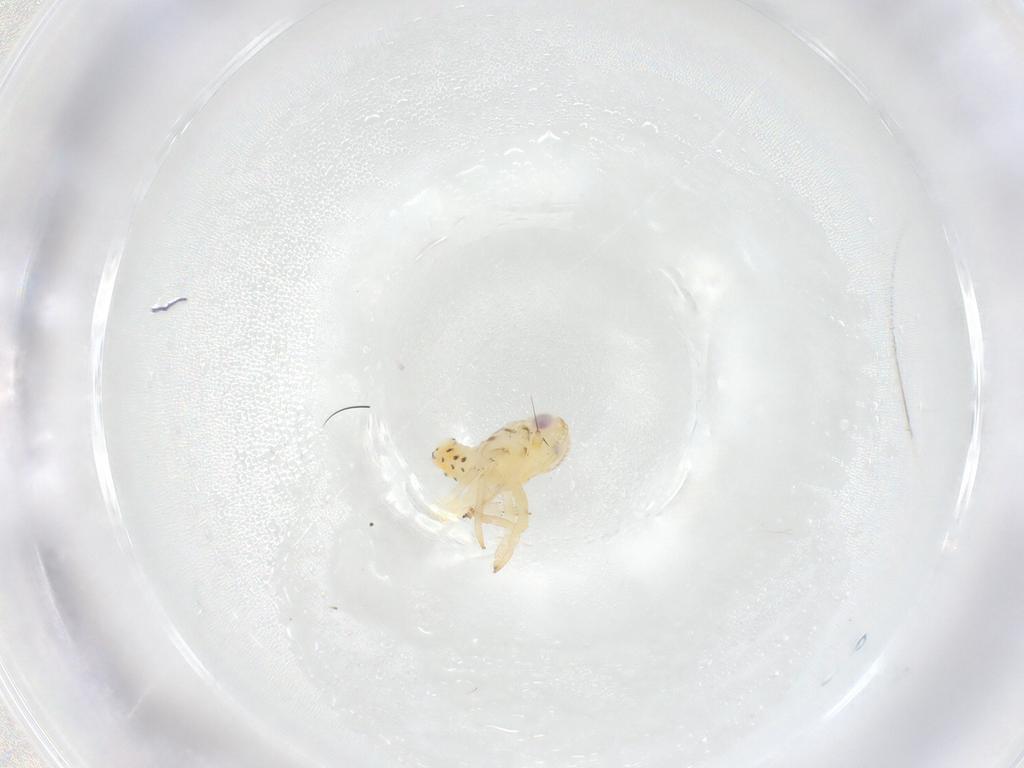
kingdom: Animalia
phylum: Arthropoda
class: Insecta
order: Hemiptera
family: Tropiduchidae
